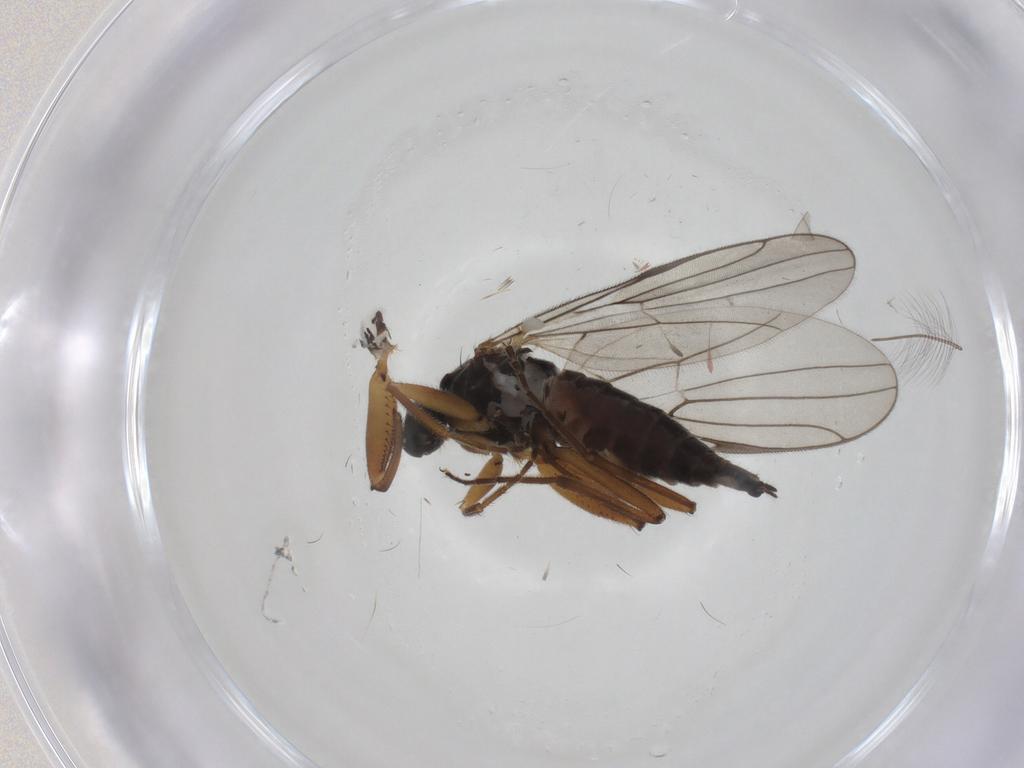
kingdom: Animalia
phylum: Arthropoda
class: Insecta
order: Diptera
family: Hybotidae
